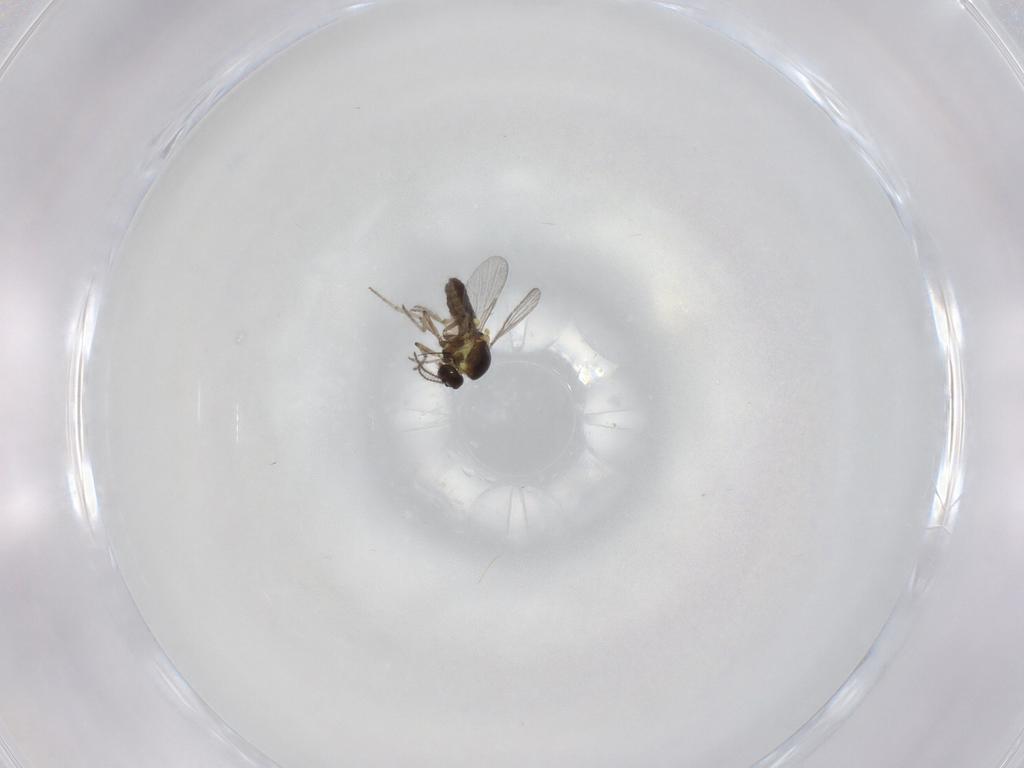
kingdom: Animalia
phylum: Arthropoda
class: Insecta
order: Diptera
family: Ceratopogonidae
